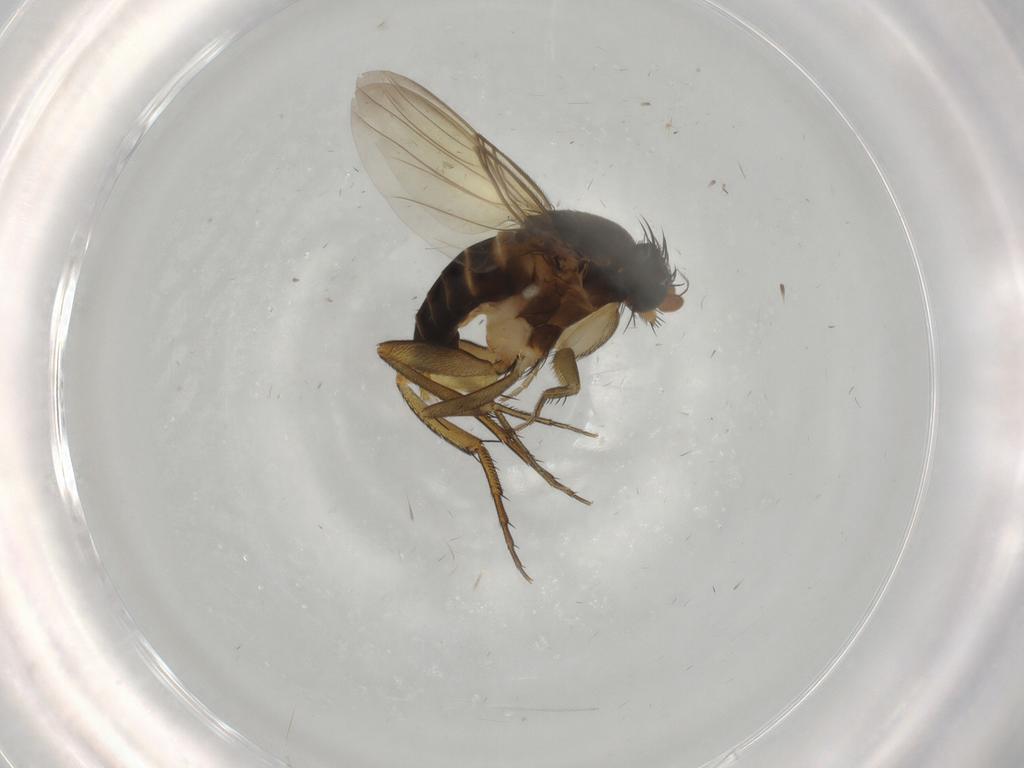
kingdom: Animalia
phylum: Arthropoda
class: Insecta
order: Diptera
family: Phoridae
